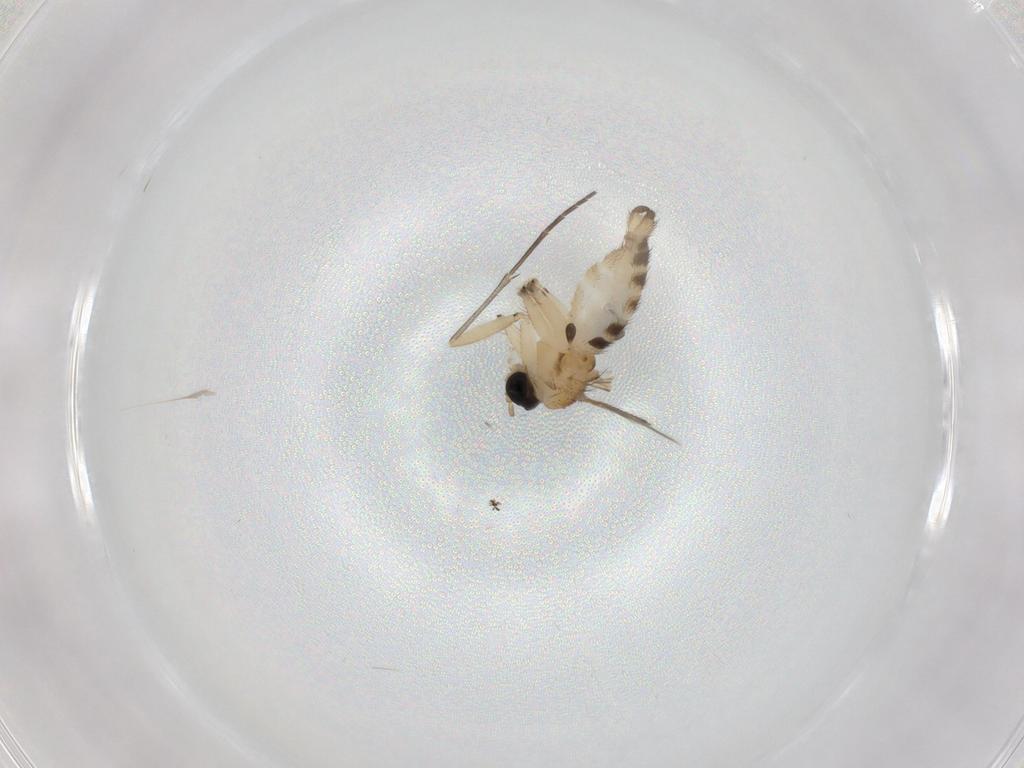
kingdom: Animalia
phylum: Arthropoda
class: Insecta
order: Diptera
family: Sciaridae
